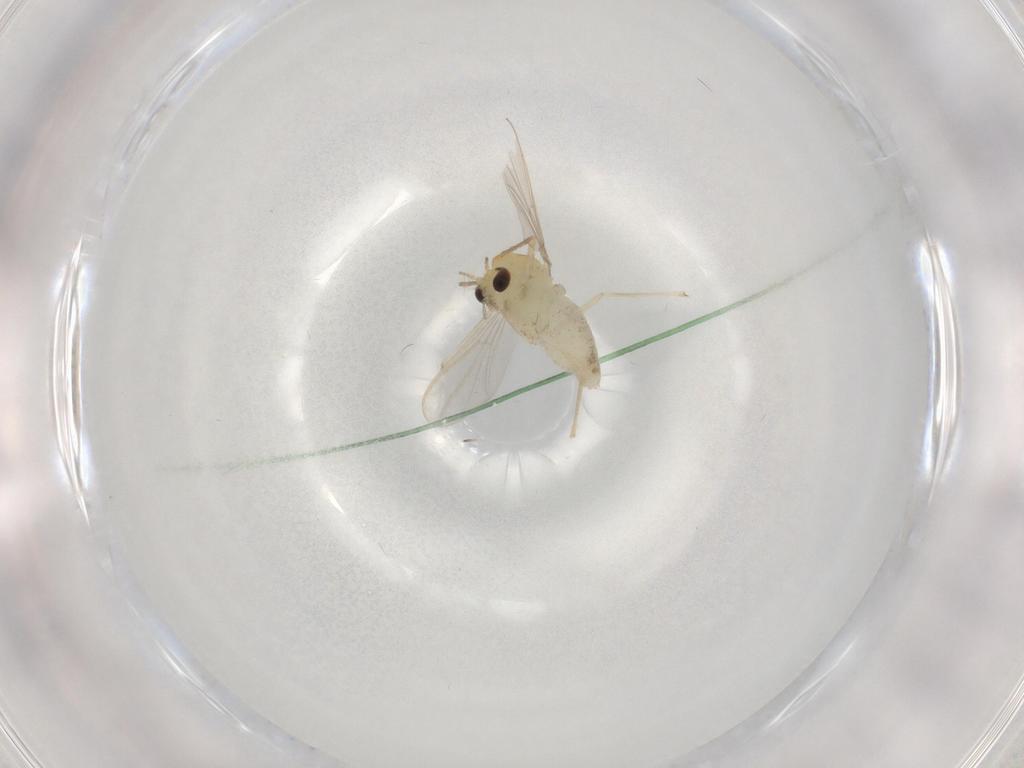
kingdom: Animalia
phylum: Arthropoda
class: Insecta
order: Diptera
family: Chironomidae
